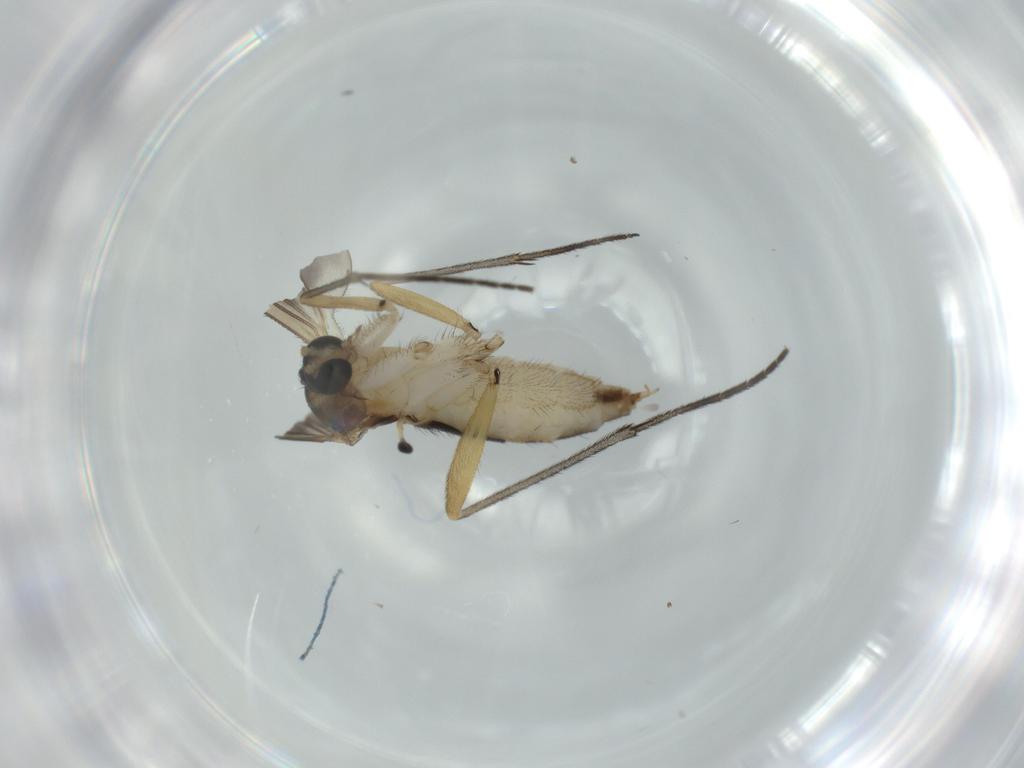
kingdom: Animalia
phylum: Arthropoda
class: Insecta
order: Diptera
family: Sciaridae
